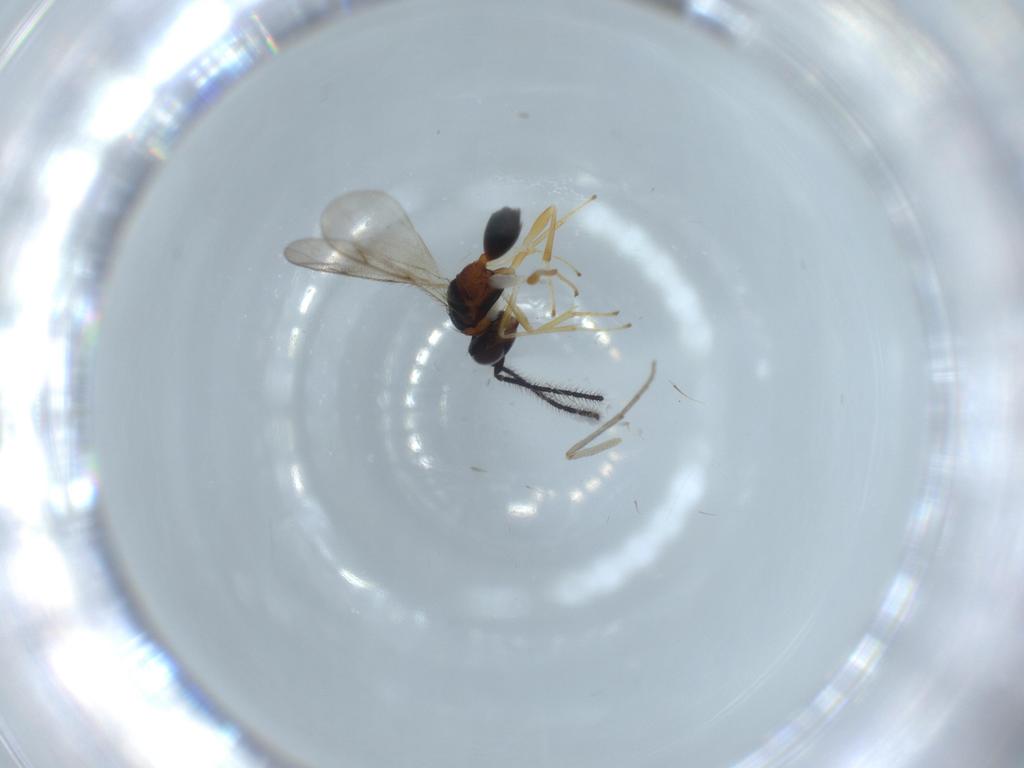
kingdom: Animalia
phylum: Arthropoda
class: Insecta
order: Hymenoptera
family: Diparidae
